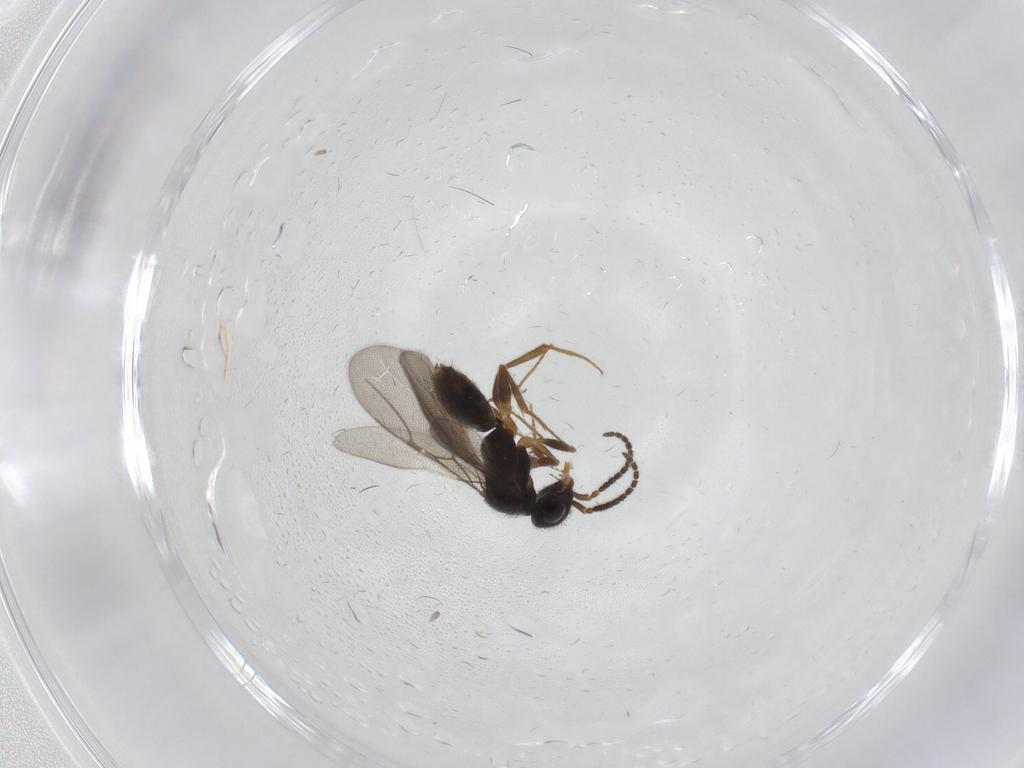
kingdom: Animalia
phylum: Arthropoda
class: Insecta
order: Hymenoptera
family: Bethylidae
